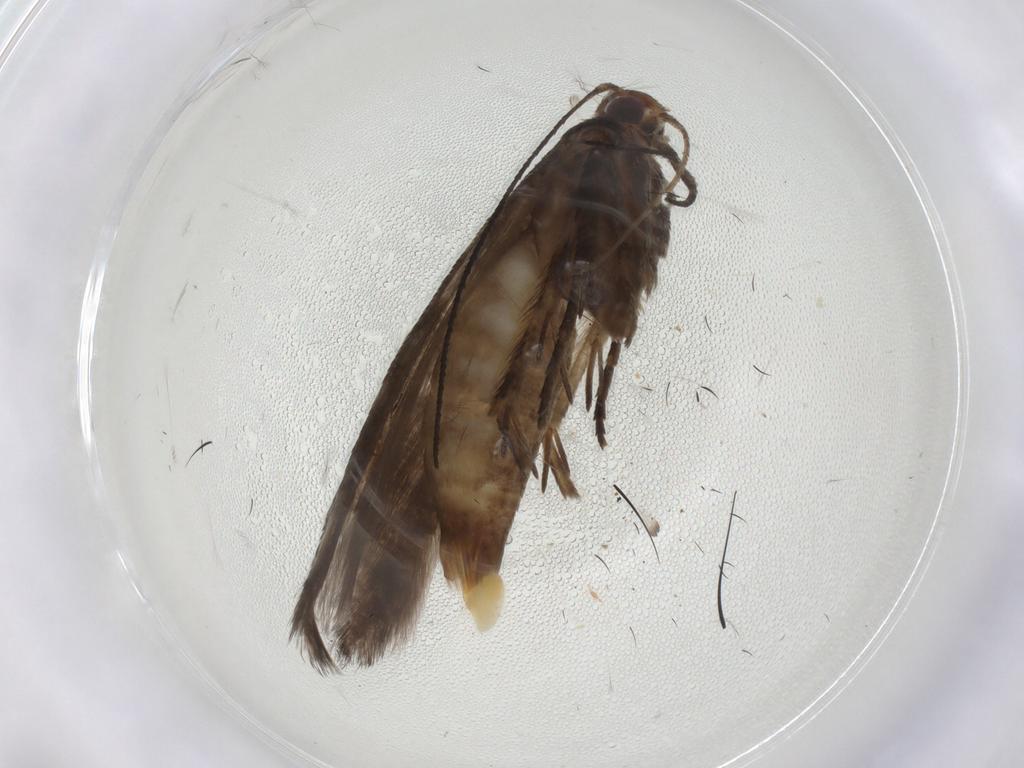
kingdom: Animalia
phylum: Arthropoda
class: Insecta
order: Lepidoptera
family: Gelechiidae
